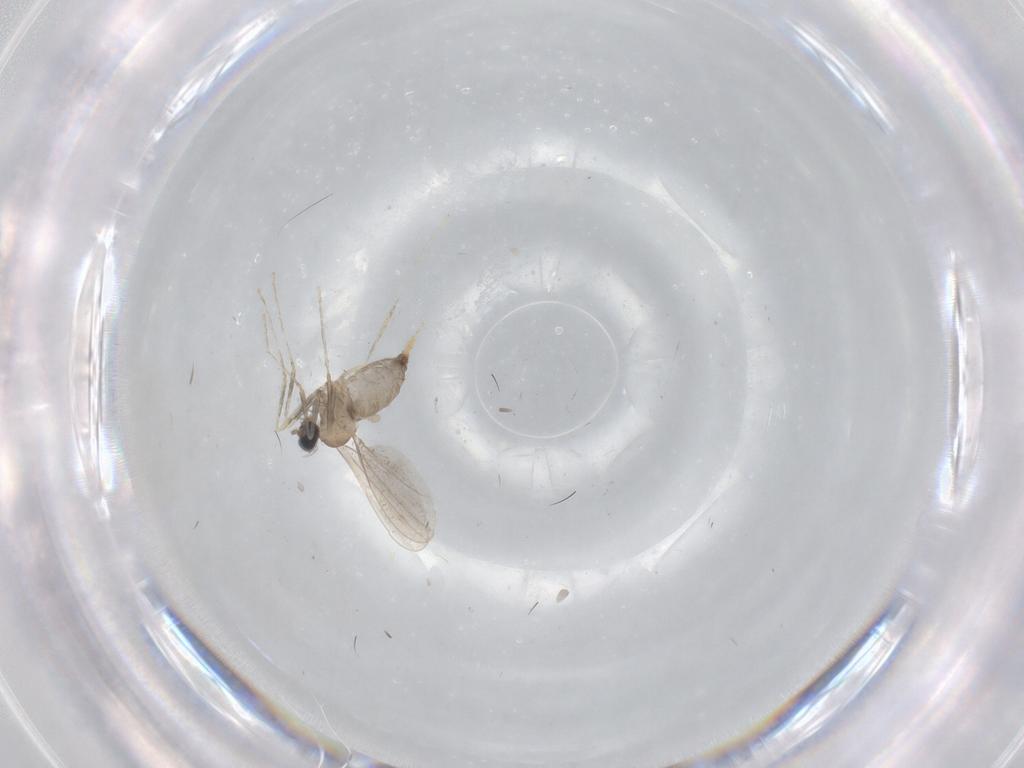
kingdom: Animalia
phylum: Arthropoda
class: Insecta
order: Diptera
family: Cecidomyiidae
